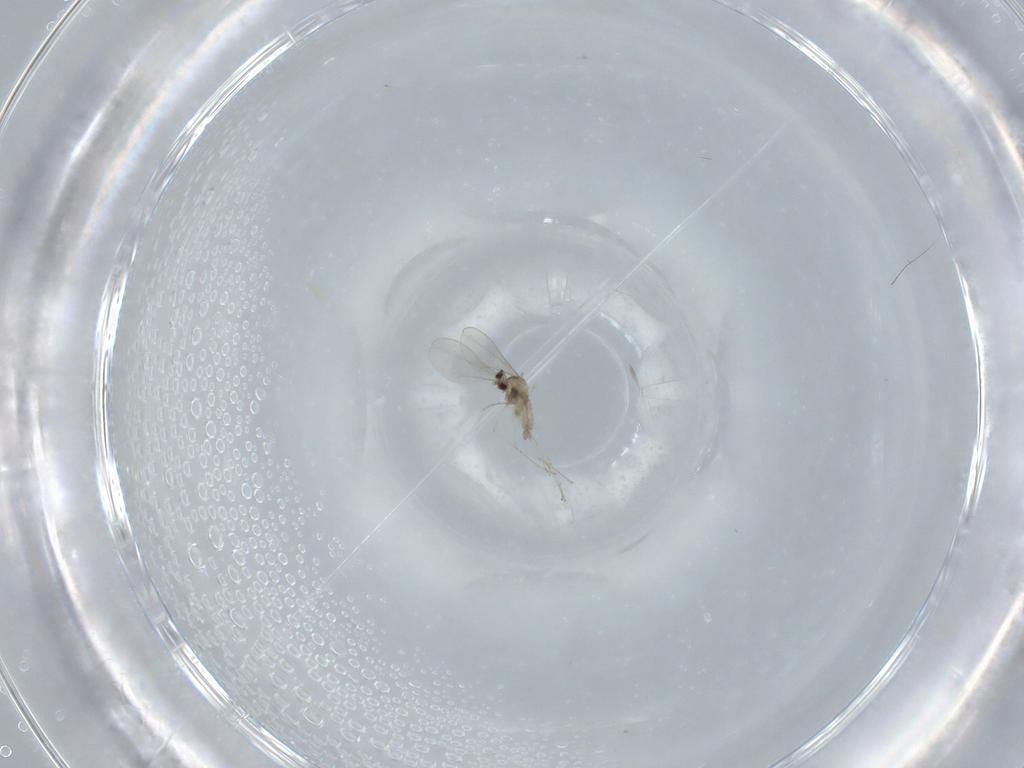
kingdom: Animalia
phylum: Arthropoda
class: Insecta
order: Diptera
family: Cecidomyiidae
